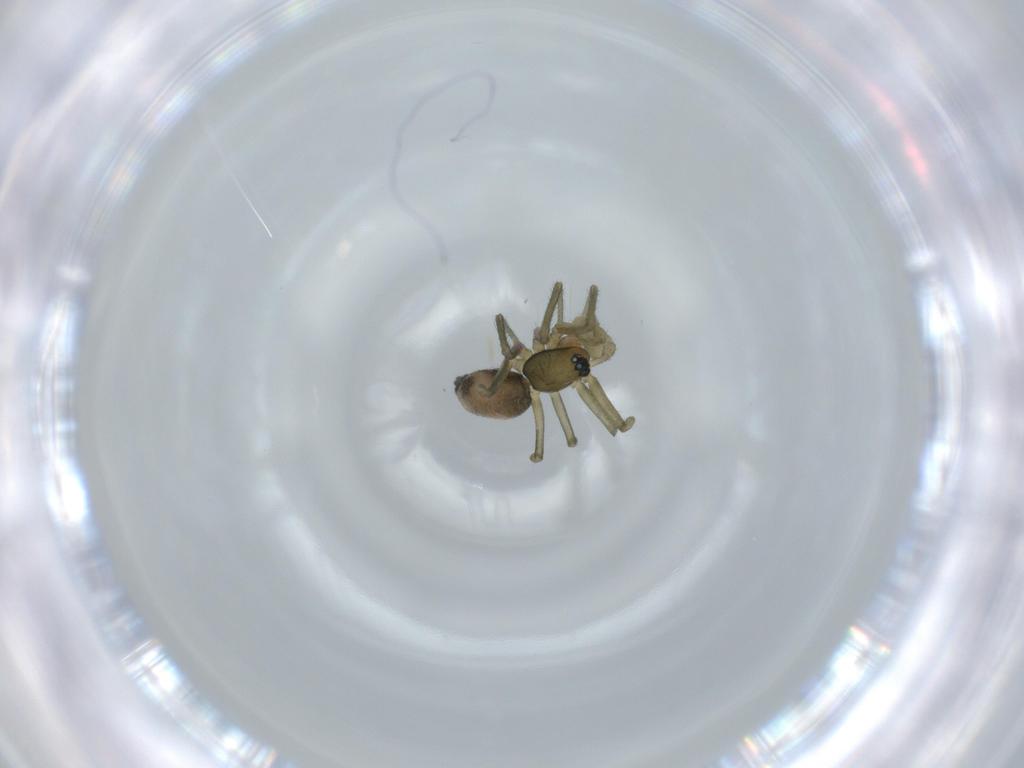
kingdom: Animalia
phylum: Arthropoda
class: Arachnida
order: Araneae
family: Linyphiidae
